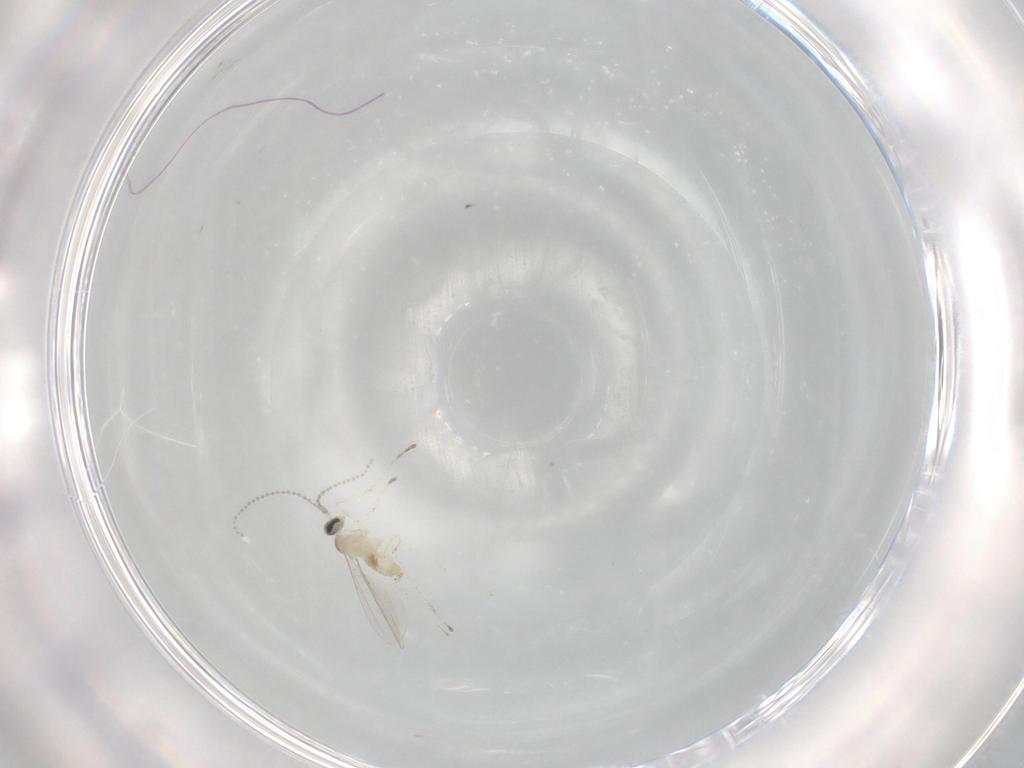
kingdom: Animalia
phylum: Arthropoda
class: Insecta
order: Diptera
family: Cecidomyiidae
